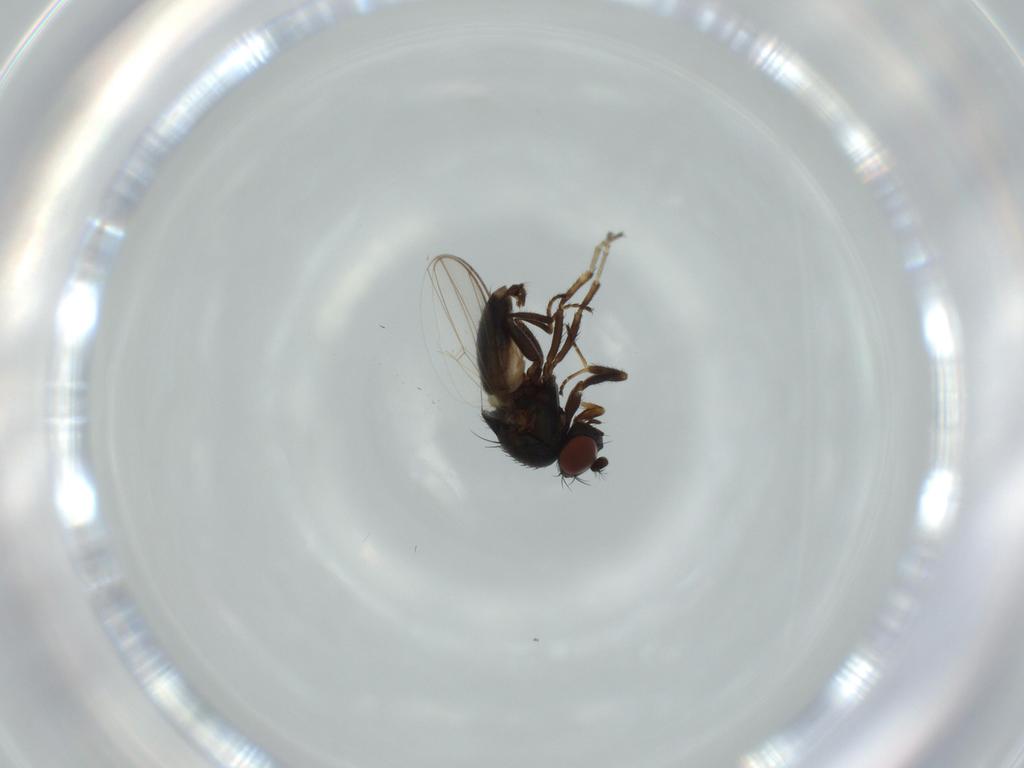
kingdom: Animalia
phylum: Arthropoda
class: Insecta
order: Diptera
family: Ephydridae
